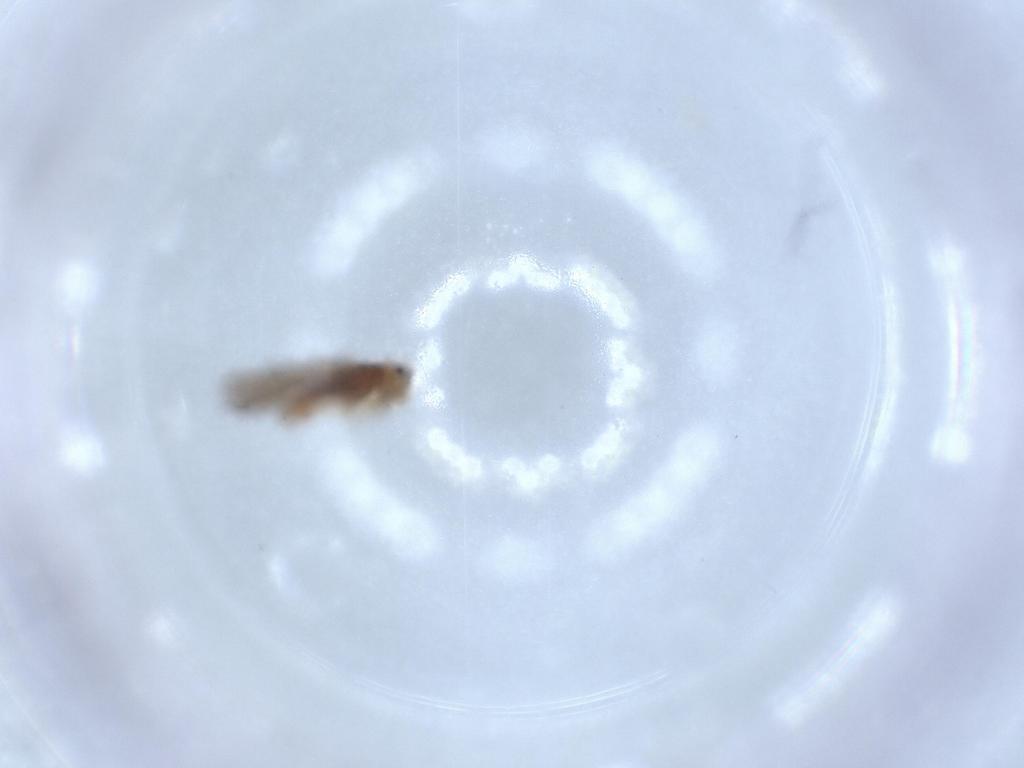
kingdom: Animalia
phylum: Arthropoda
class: Insecta
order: Psocodea
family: Lepidopsocidae
